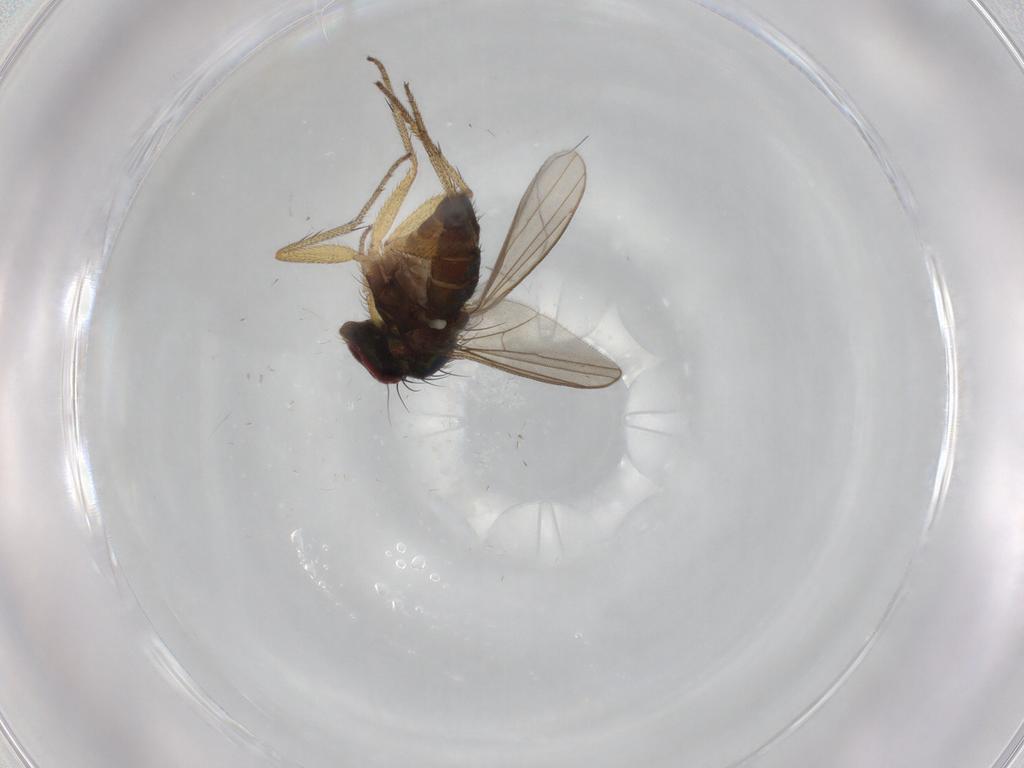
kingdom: Animalia
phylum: Arthropoda
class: Insecta
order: Diptera
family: Dolichopodidae
